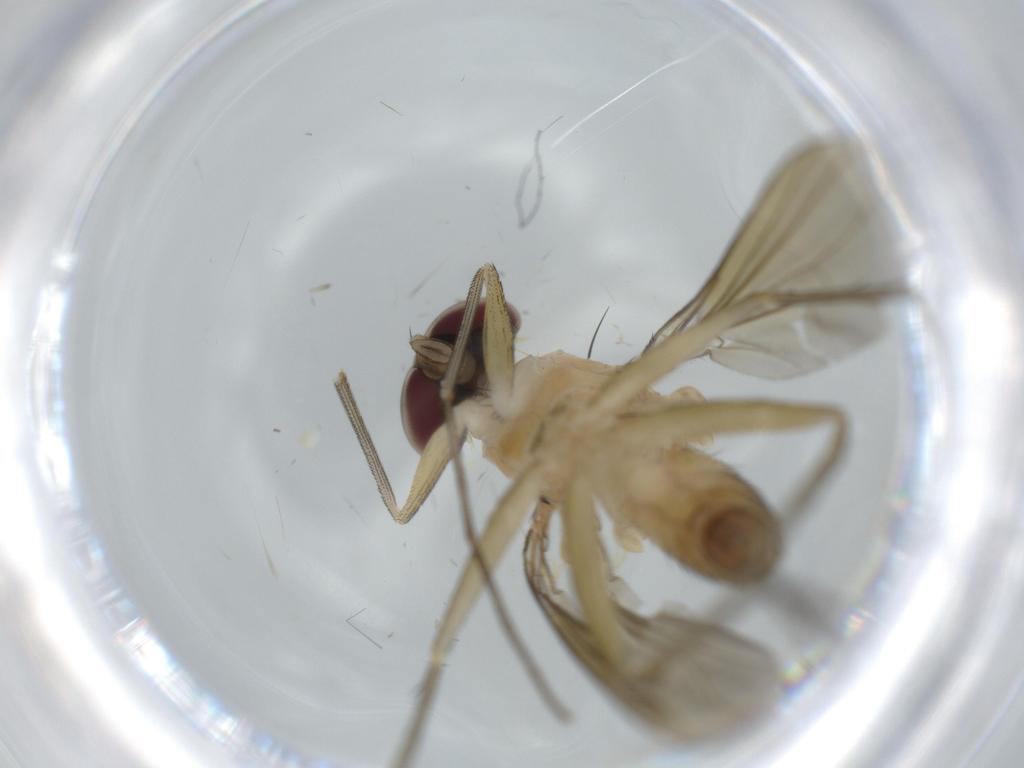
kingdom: Animalia
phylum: Arthropoda
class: Insecta
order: Diptera
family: Dolichopodidae
